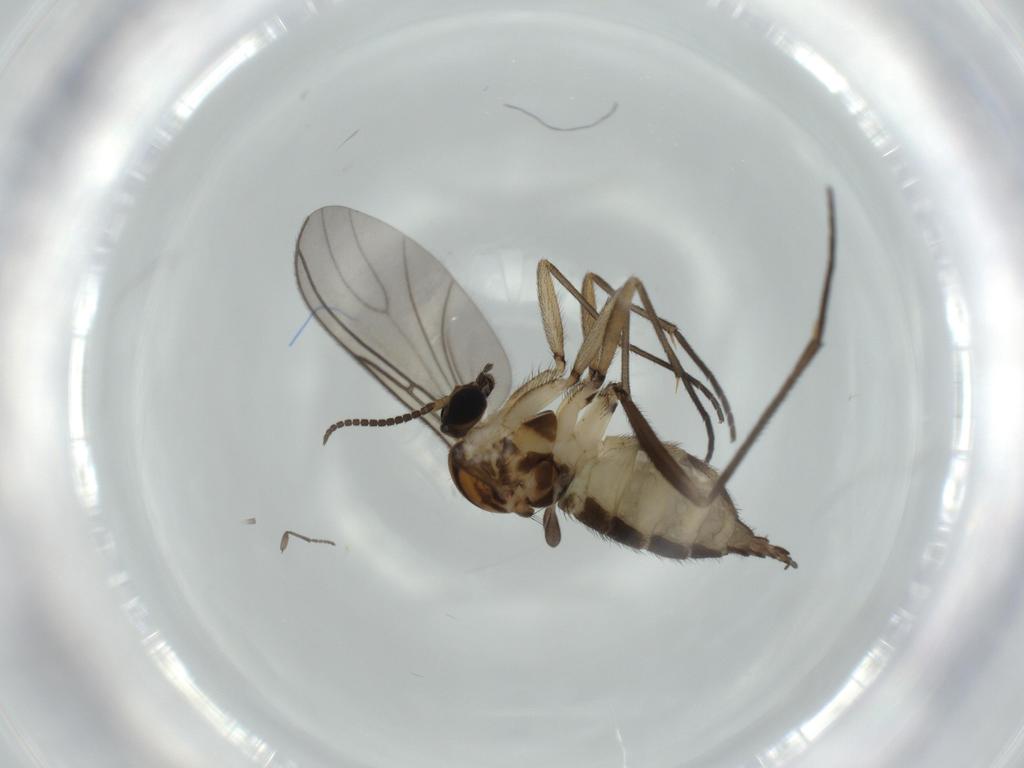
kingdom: Animalia
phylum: Arthropoda
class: Insecta
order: Diptera
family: Sciaridae
